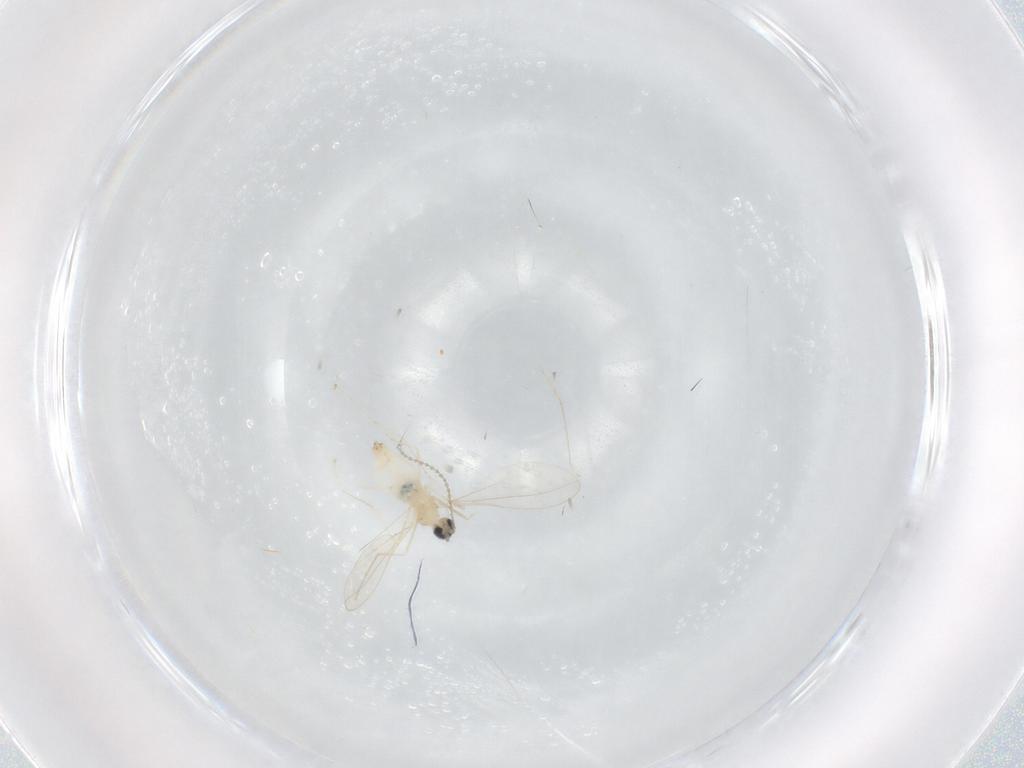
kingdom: Animalia
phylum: Arthropoda
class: Insecta
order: Diptera
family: Cecidomyiidae
